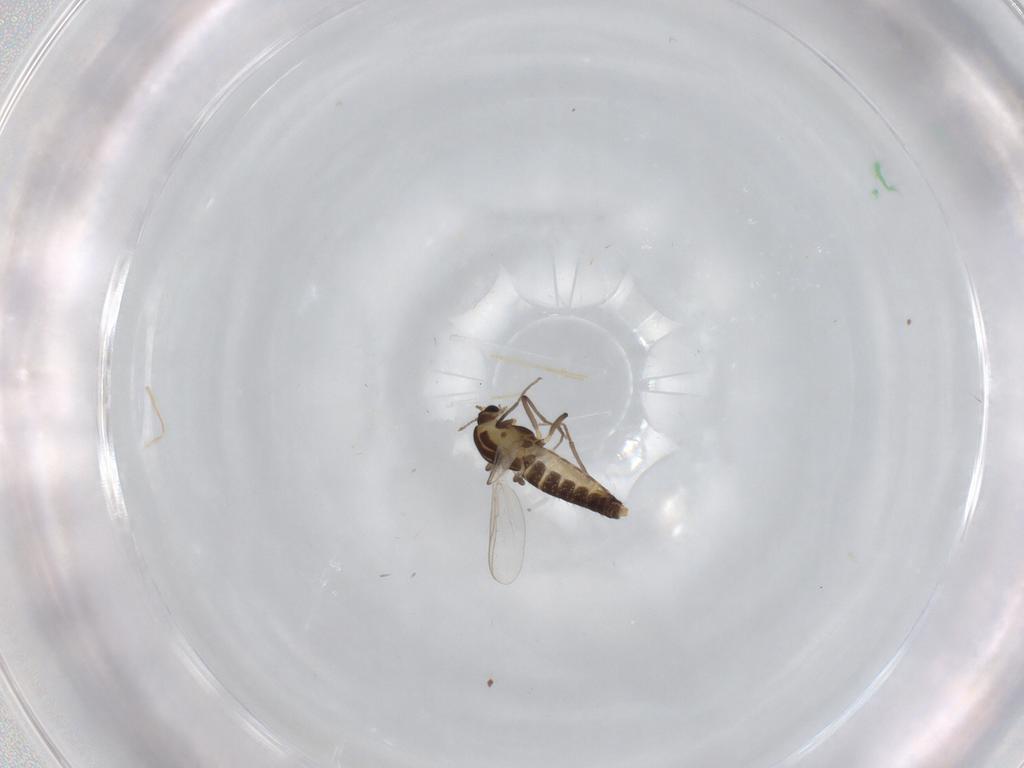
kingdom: Animalia
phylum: Arthropoda
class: Insecta
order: Diptera
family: Chironomidae
